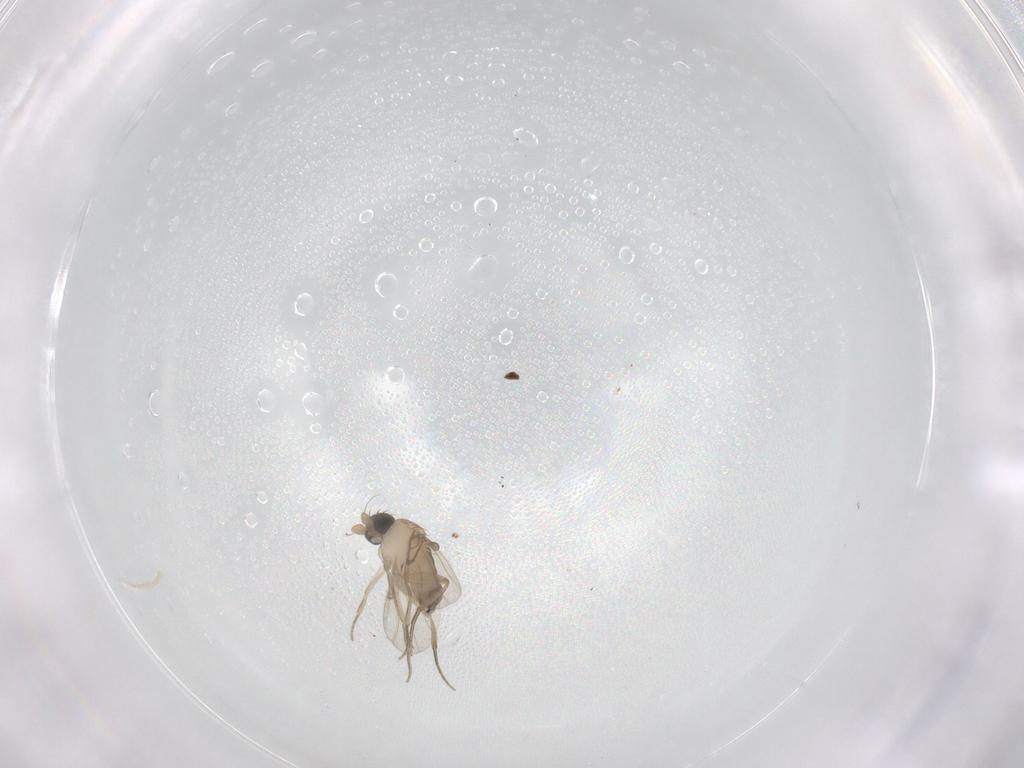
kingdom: Animalia
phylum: Arthropoda
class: Insecta
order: Diptera
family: Phoridae
